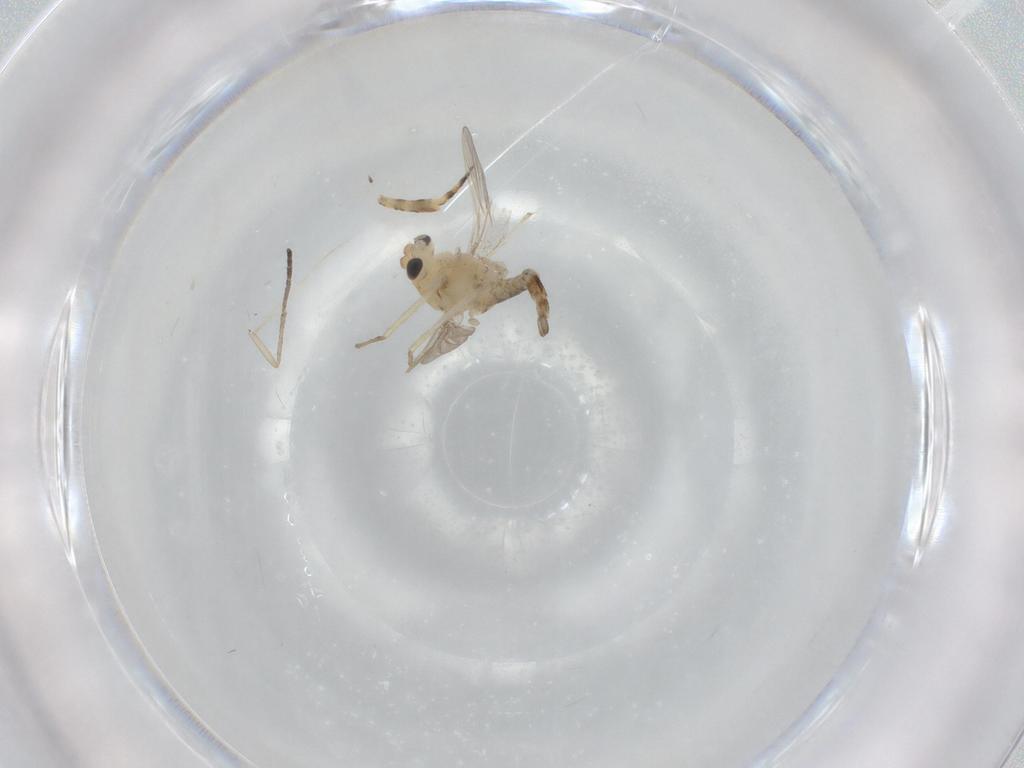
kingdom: Animalia
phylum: Arthropoda
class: Insecta
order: Diptera
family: Chironomidae
